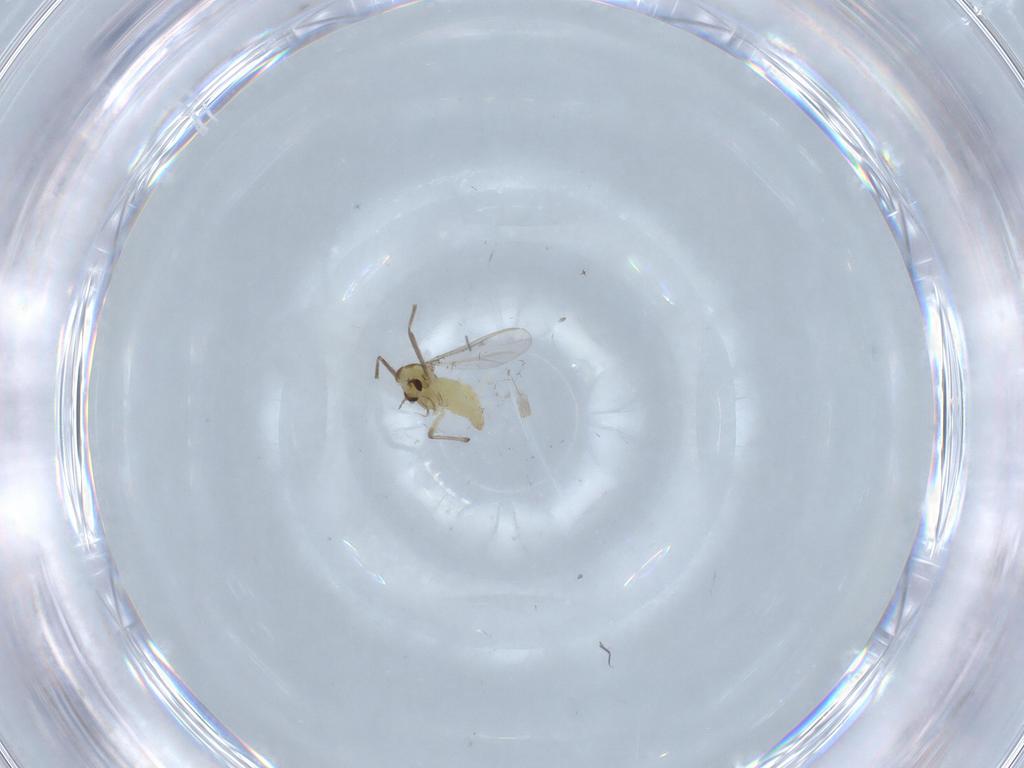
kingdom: Animalia
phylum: Arthropoda
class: Insecta
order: Diptera
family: Chironomidae
